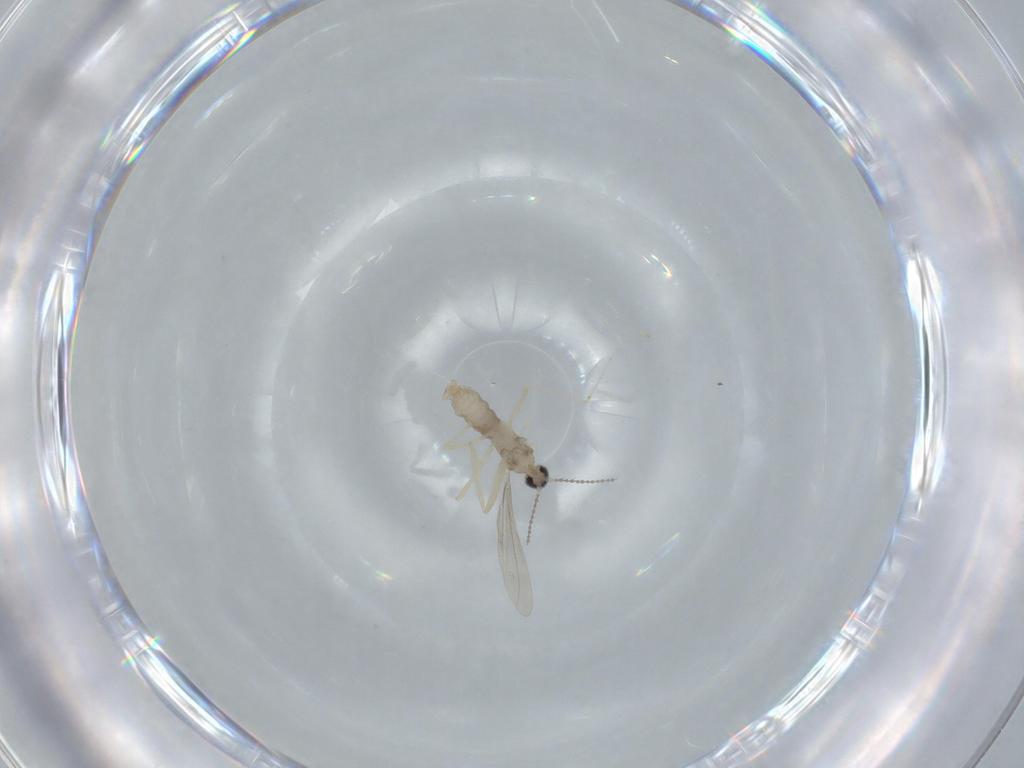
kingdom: Animalia
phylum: Arthropoda
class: Insecta
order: Diptera
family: Cecidomyiidae
